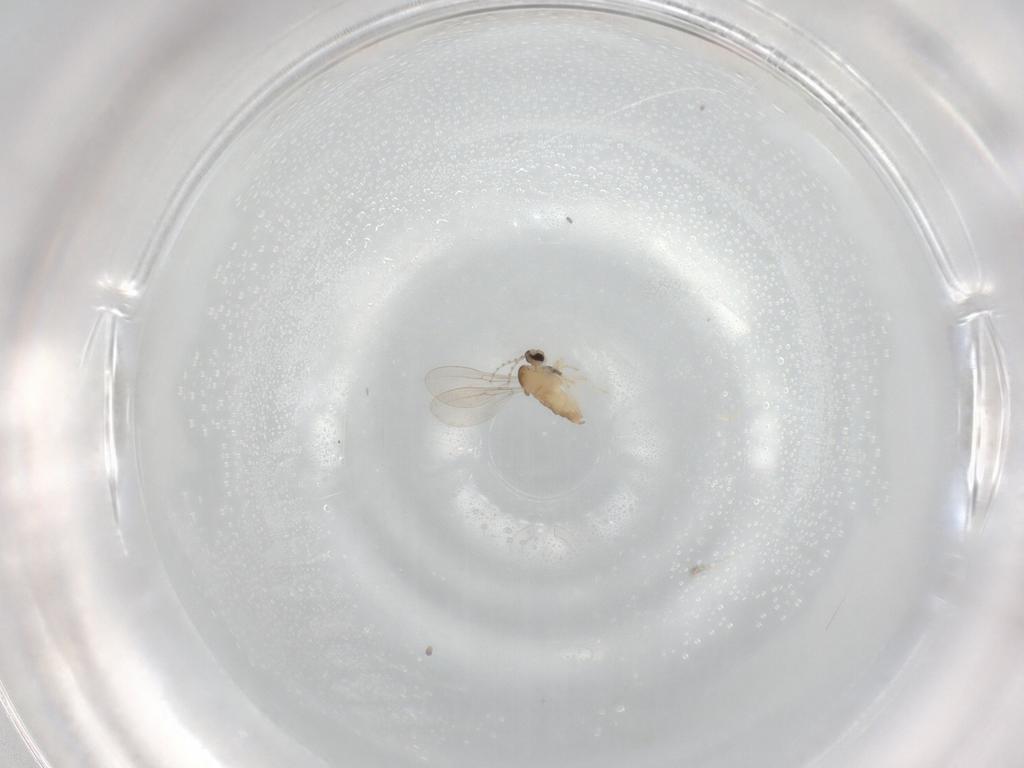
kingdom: Animalia
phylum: Arthropoda
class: Insecta
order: Diptera
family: Sciaridae
